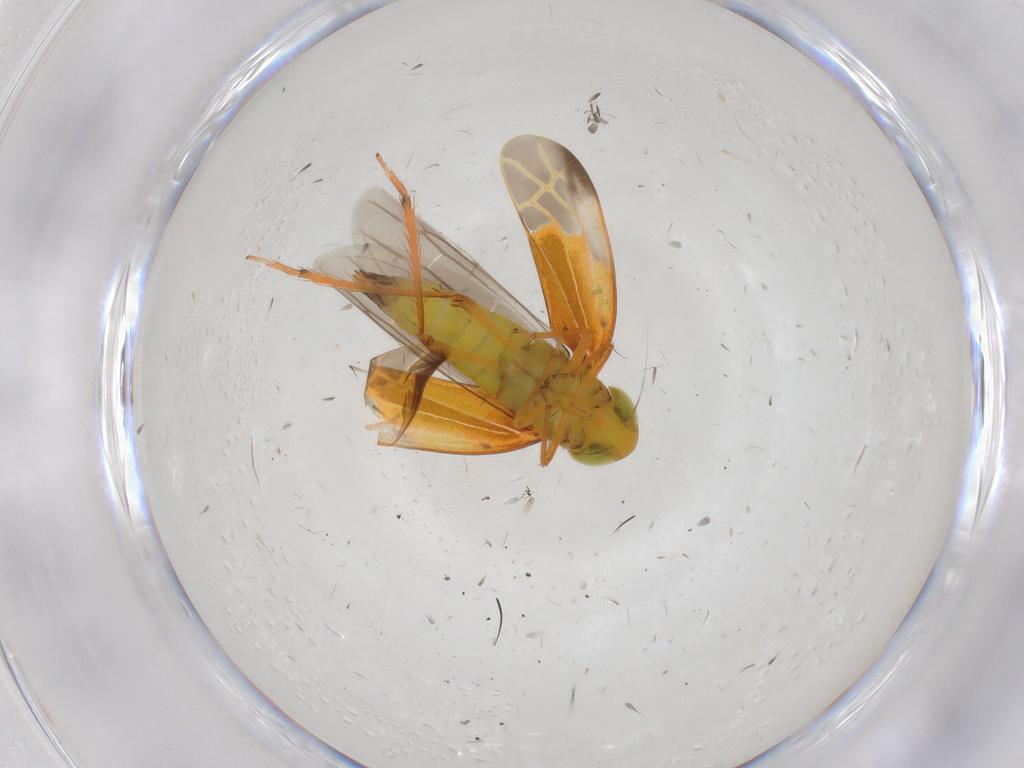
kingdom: Animalia
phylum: Arthropoda
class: Insecta
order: Hemiptera
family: Cicadellidae
